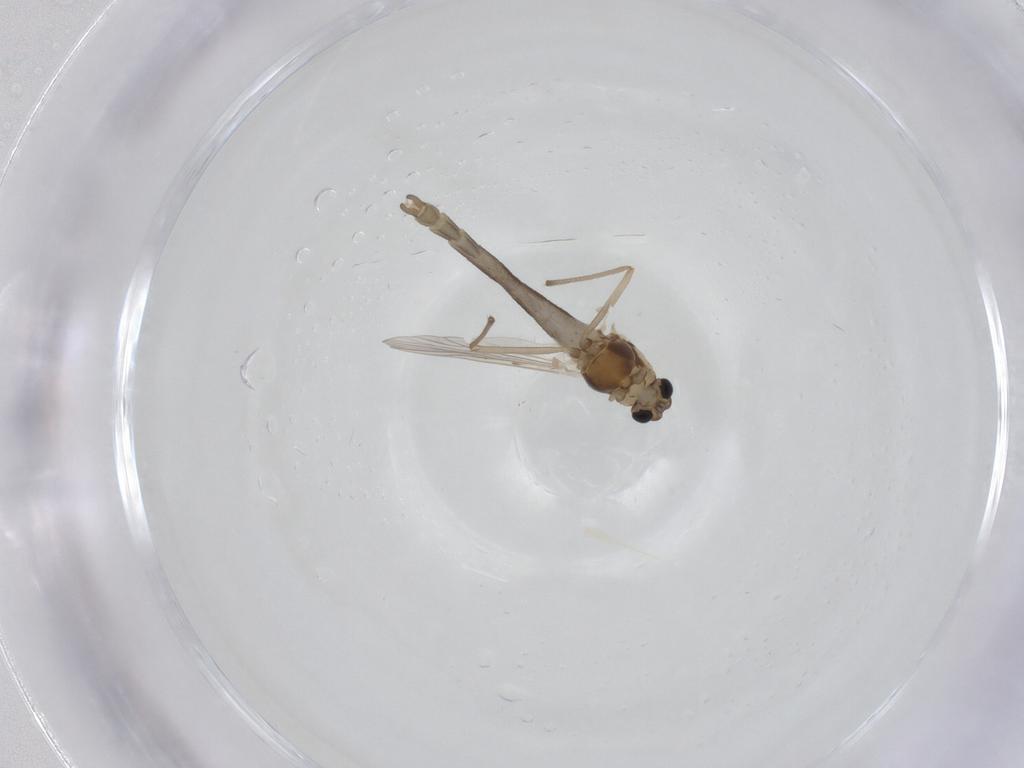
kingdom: Animalia
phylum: Arthropoda
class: Insecta
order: Diptera
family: Chironomidae
